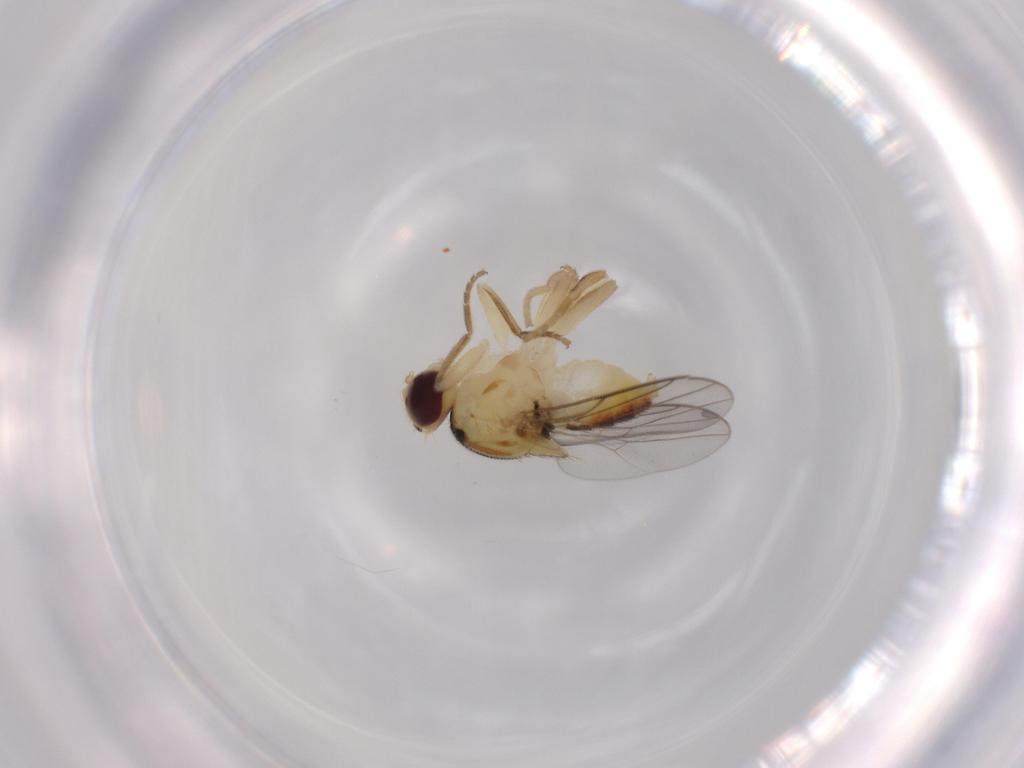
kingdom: Animalia
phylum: Arthropoda
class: Insecta
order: Diptera
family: Chloropidae
